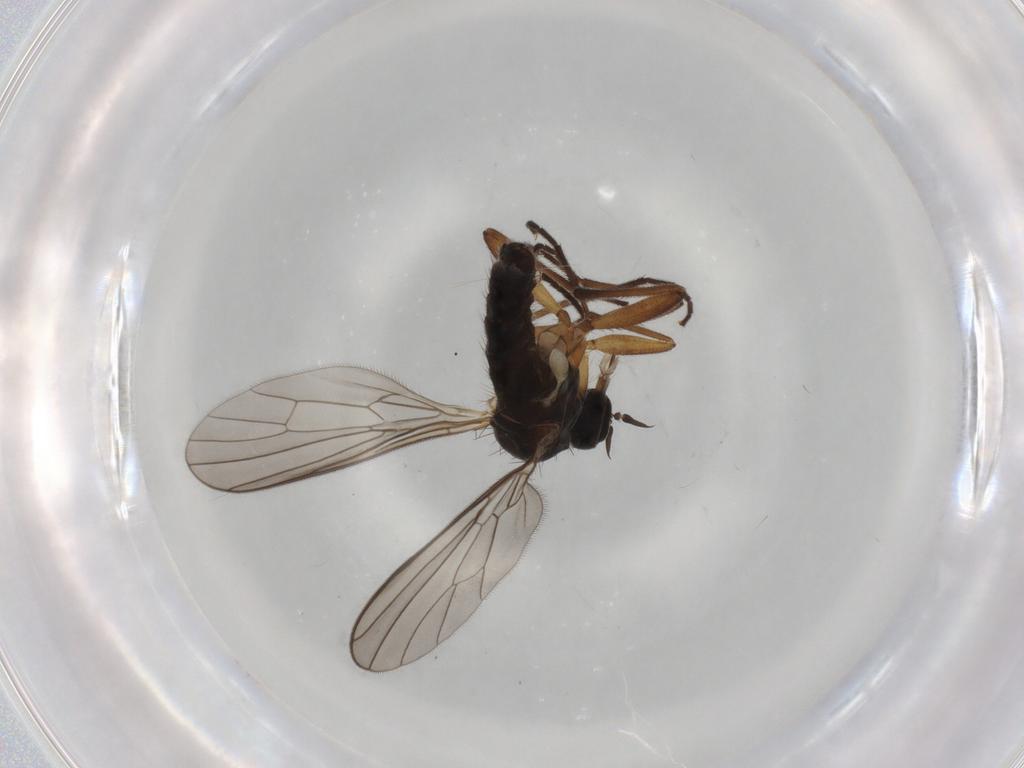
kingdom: Animalia
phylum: Arthropoda
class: Insecta
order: Diptera
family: Empididae
